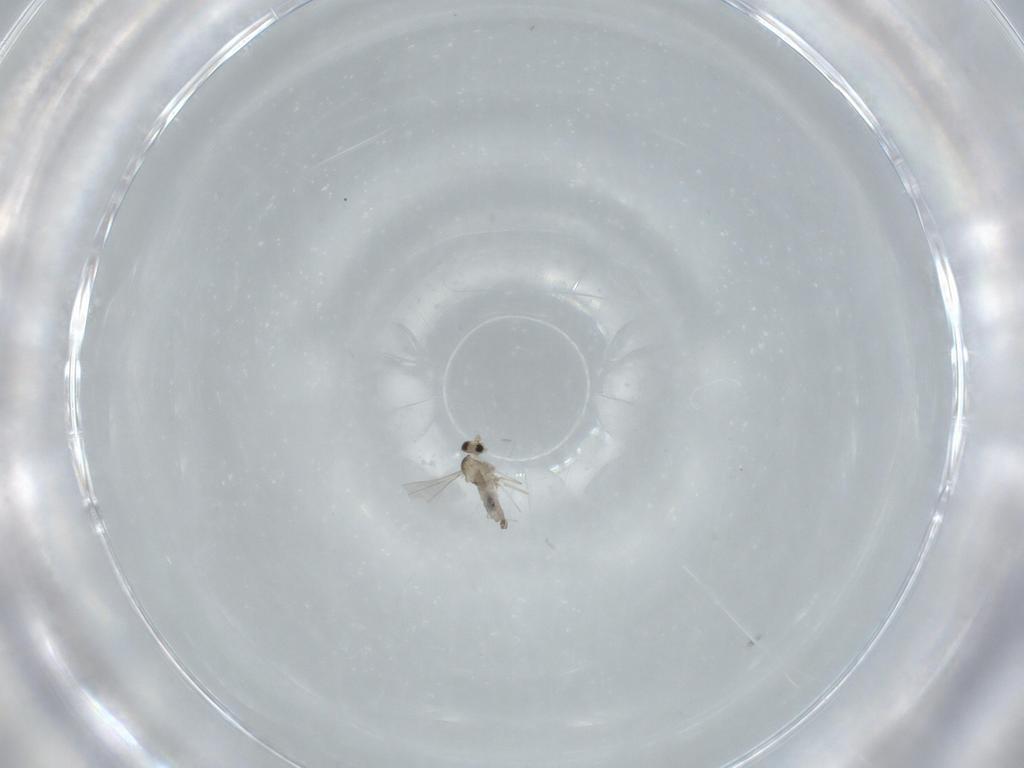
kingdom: Animalia
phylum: Arthropoda
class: Insecta
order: Diptera
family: Cecidomyiidae
